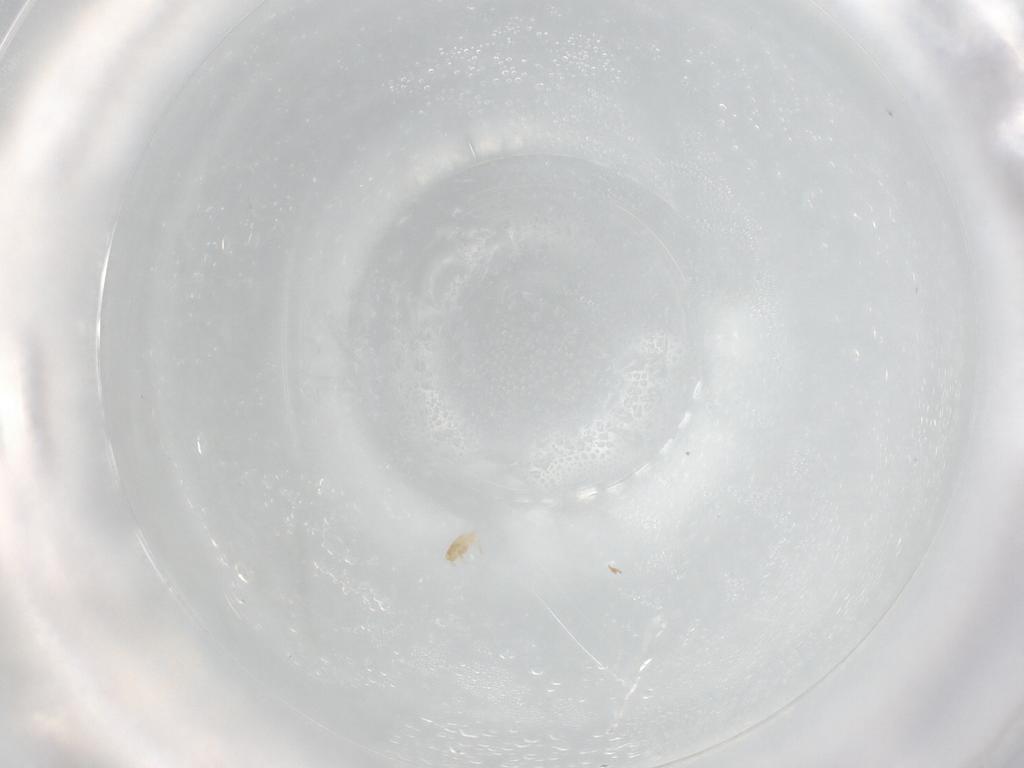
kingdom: Animalia
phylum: Arthropoda
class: Arachnida
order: Mesostigmata
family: Digamasellidae
